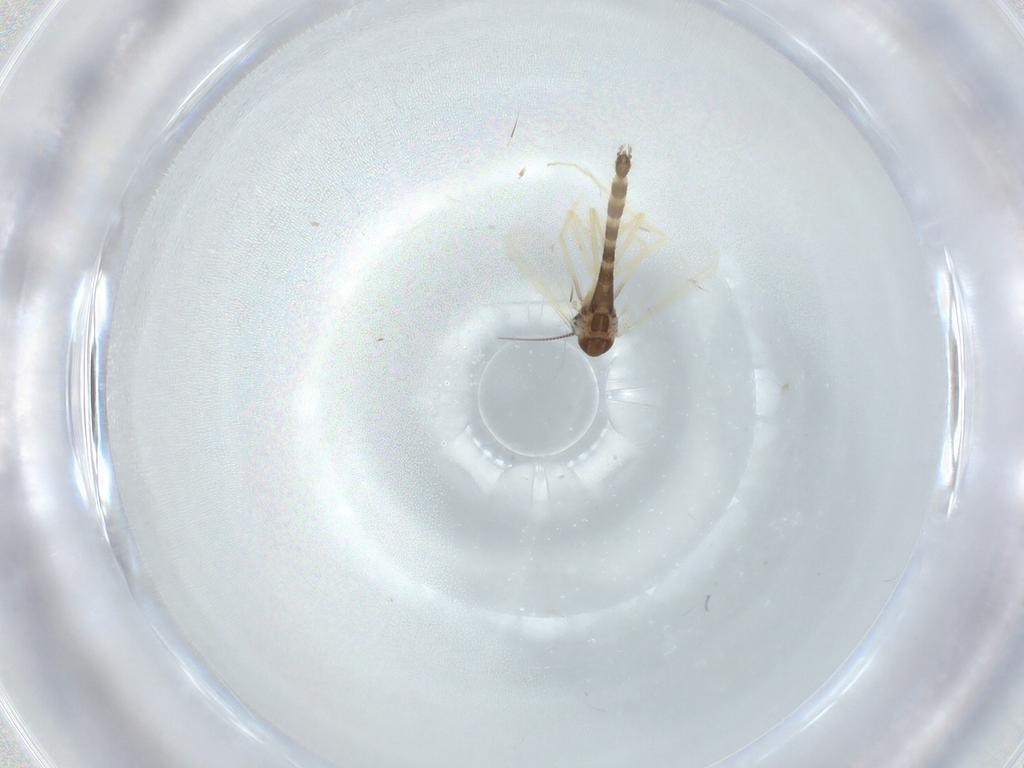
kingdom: Animalia
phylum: Arthropoda
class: Insecta
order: Diptera
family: Chironomidae
